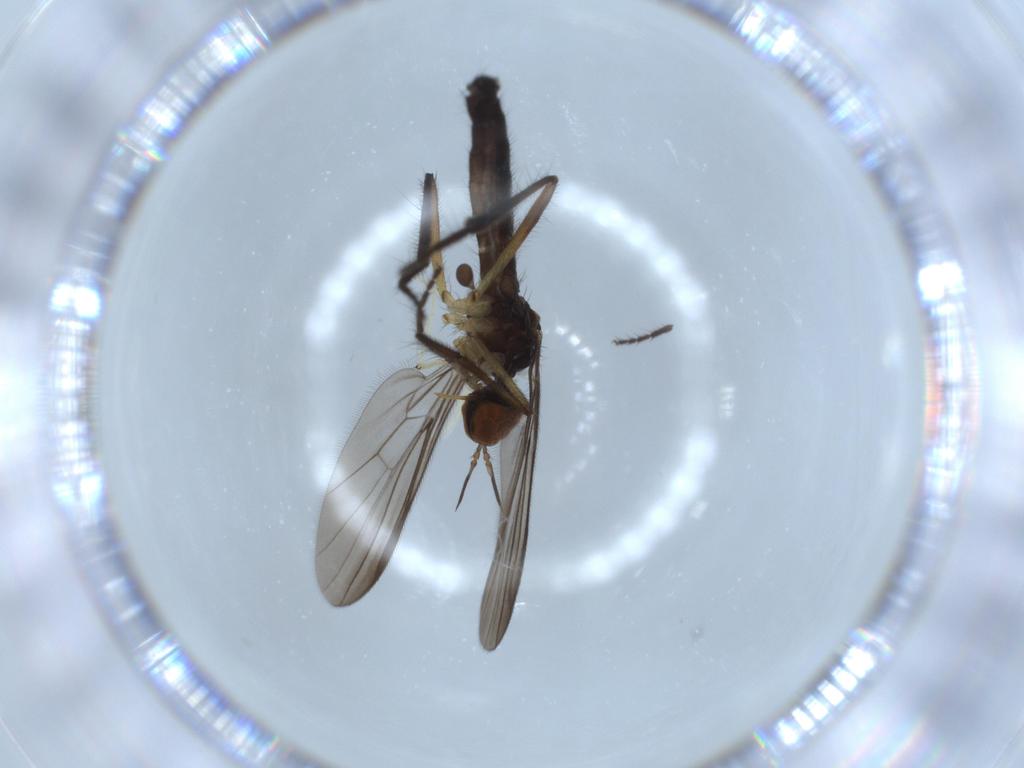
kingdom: Animalia
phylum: Arthropoda
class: Insecta
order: Diptera
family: Empididae
